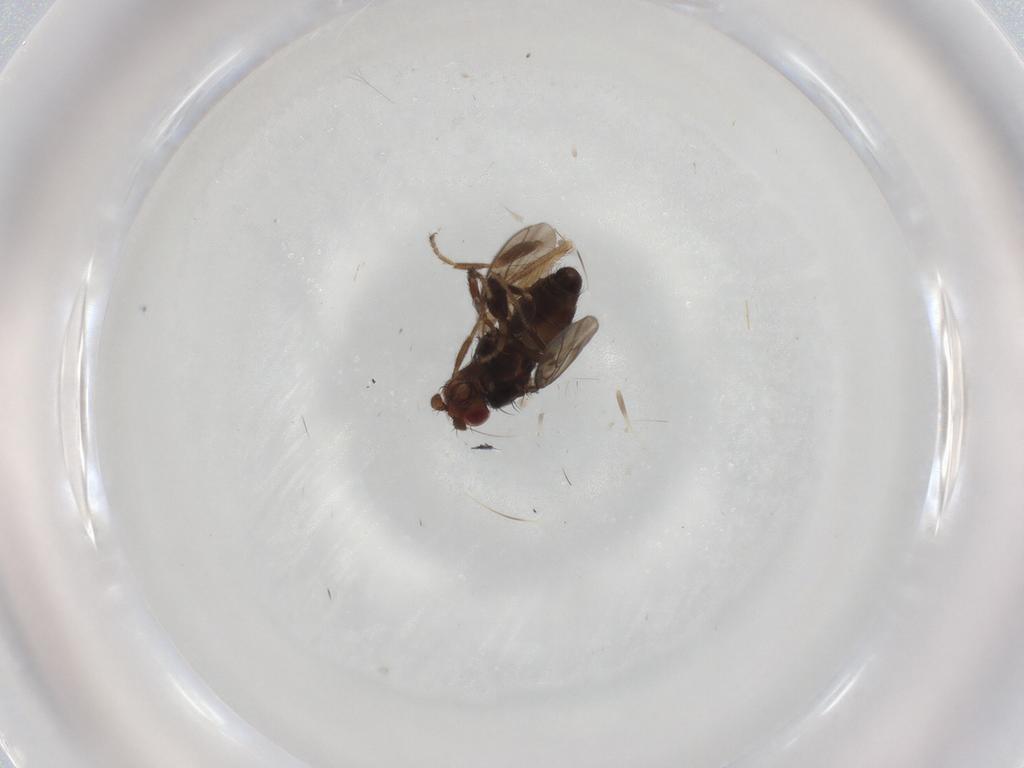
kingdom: Animalia
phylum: Arthropoda
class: Insecta
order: Diptera
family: Sphaeroceridae
